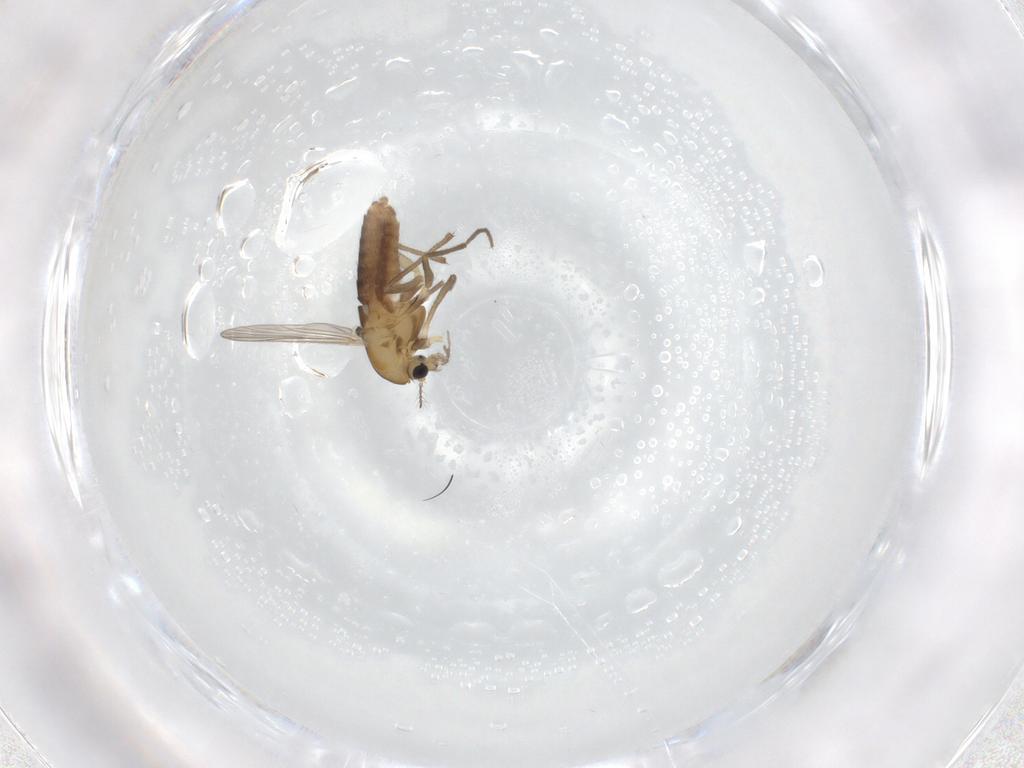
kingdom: Animalia
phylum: Arthropoda
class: Insecta
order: Diptera
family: Chironomidae
